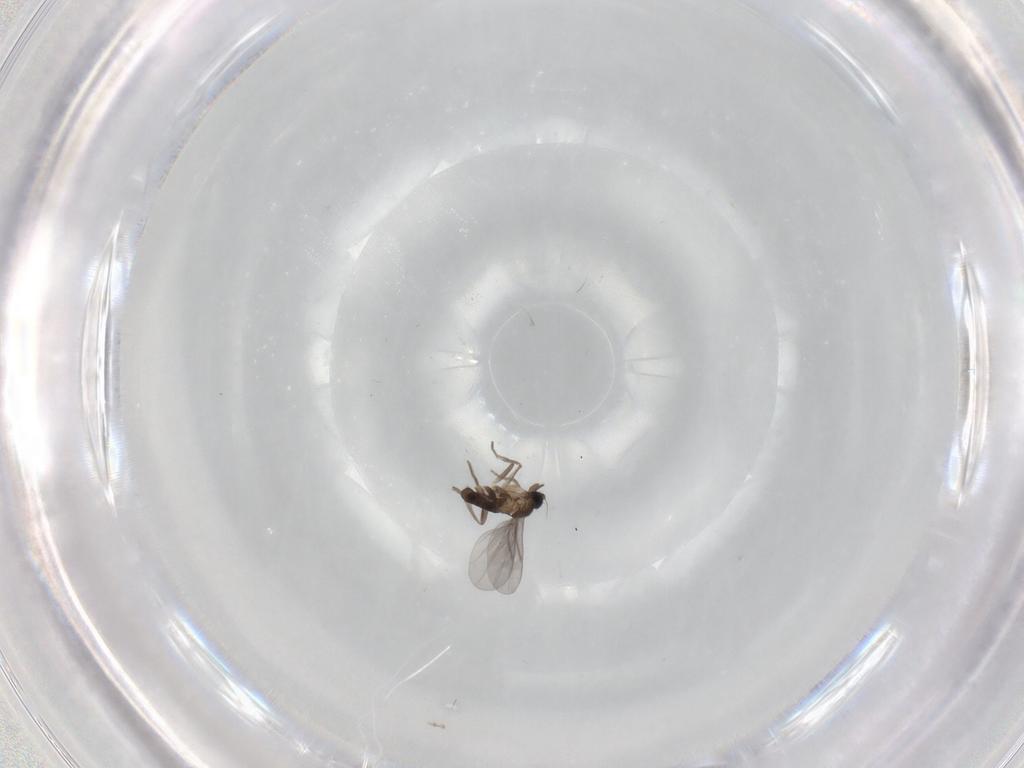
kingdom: Animalia
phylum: Arthropoda
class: Insecta
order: Diptera
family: Cecidomyiidae
